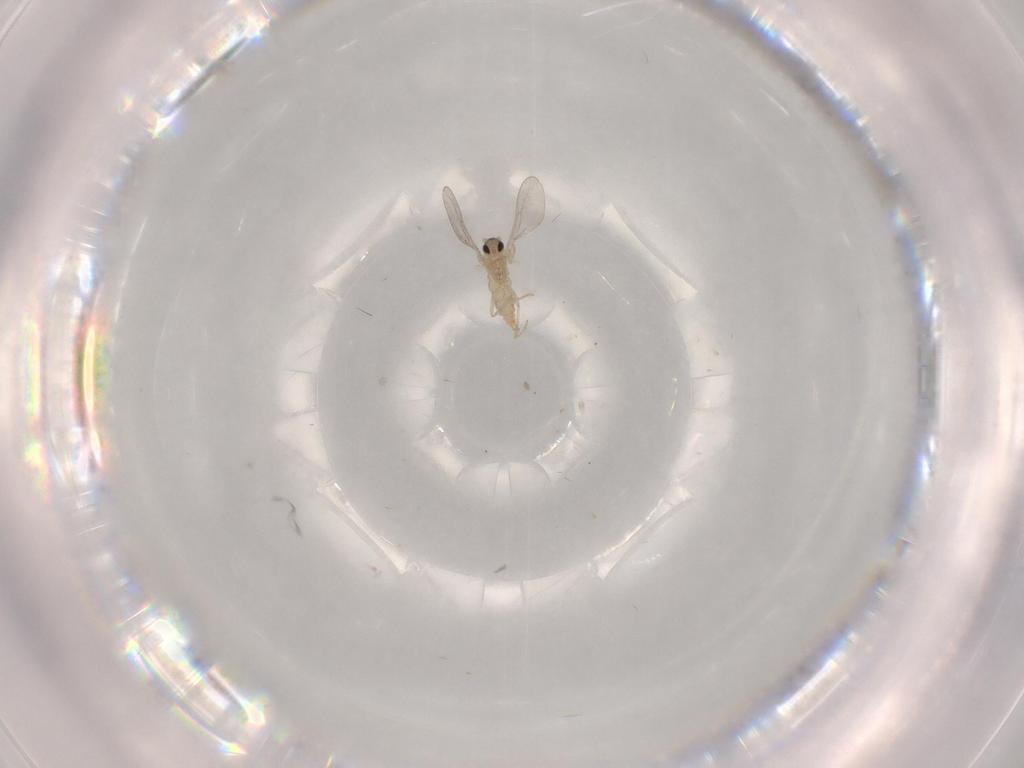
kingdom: Animalia
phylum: Arthropoda
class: Insecta
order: Diptera
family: Cecidomyiidae
